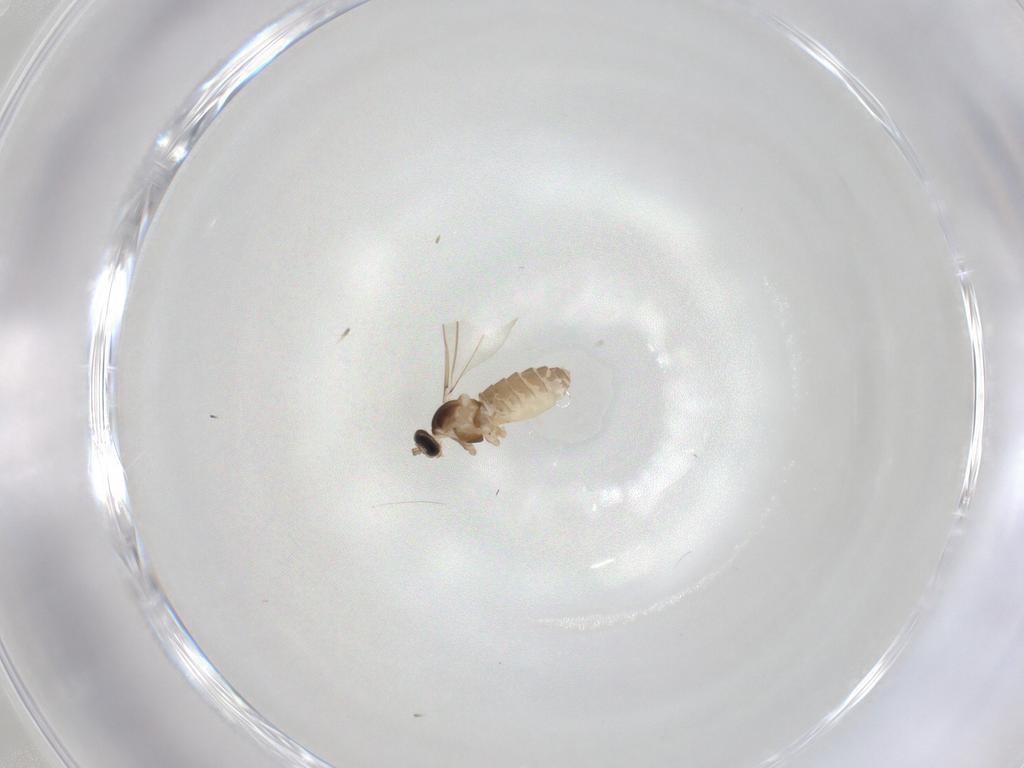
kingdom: Animalia
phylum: Arthropoda
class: Insecta
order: Diptera
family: Cecidomyiidae
